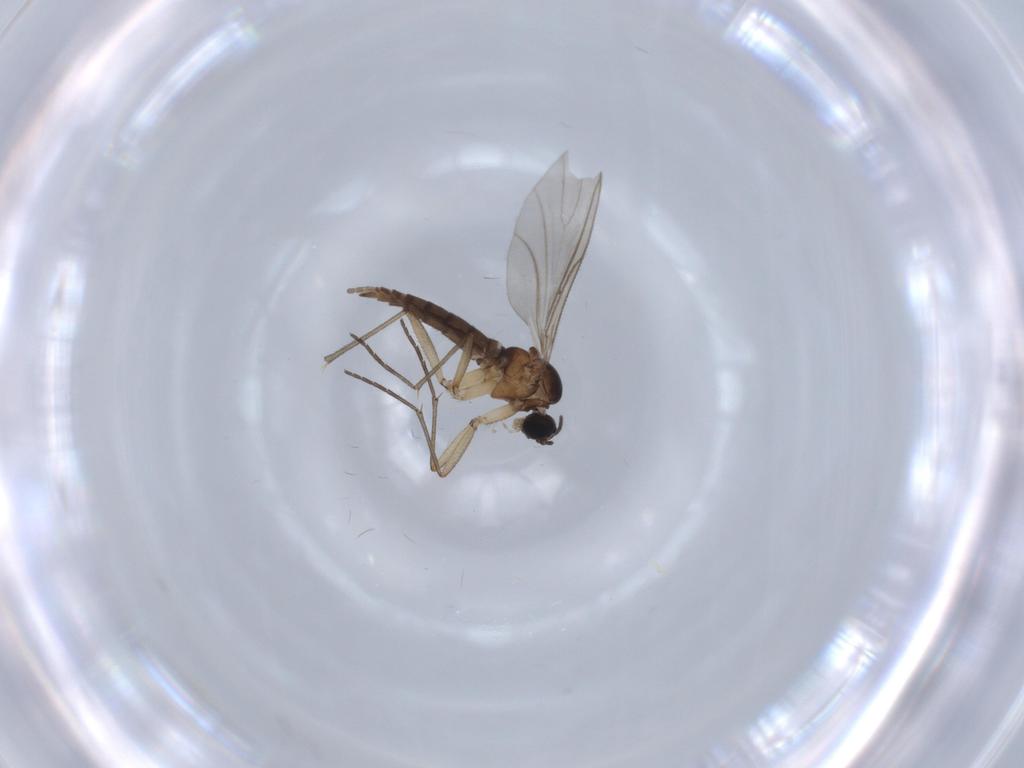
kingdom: Animalia
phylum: Arthropoda
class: Insecta
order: Diptera
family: Sciaridae
